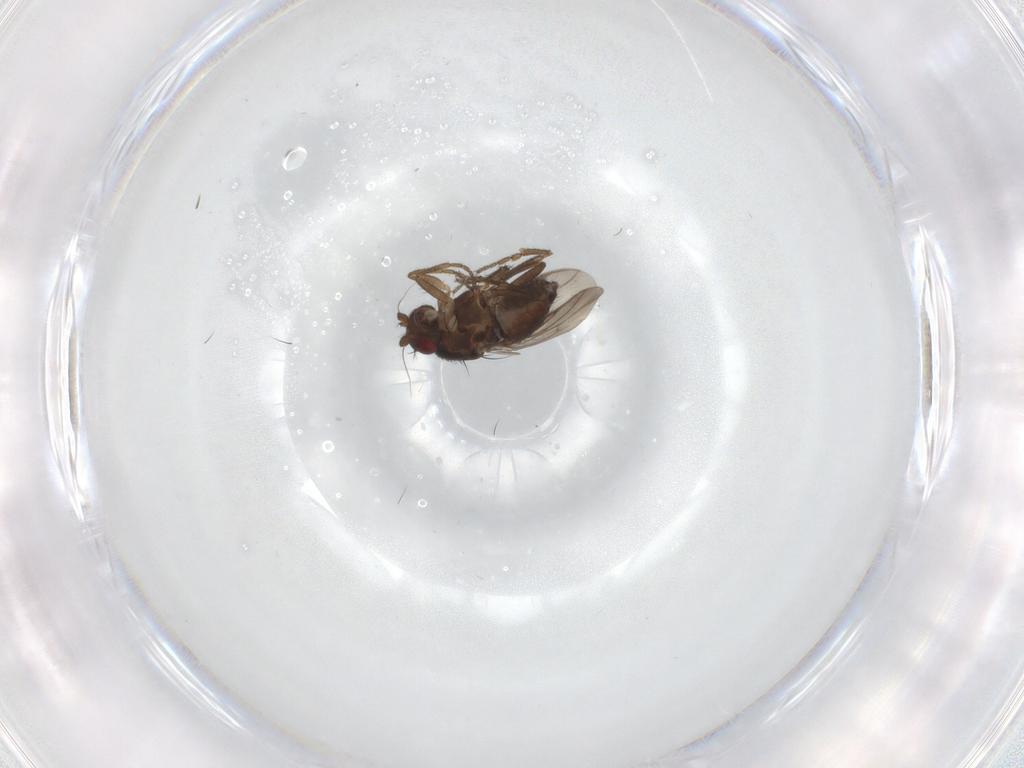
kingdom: Animalia
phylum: Arthropoda
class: Insecta
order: Diptera
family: Sphaeroceridae
